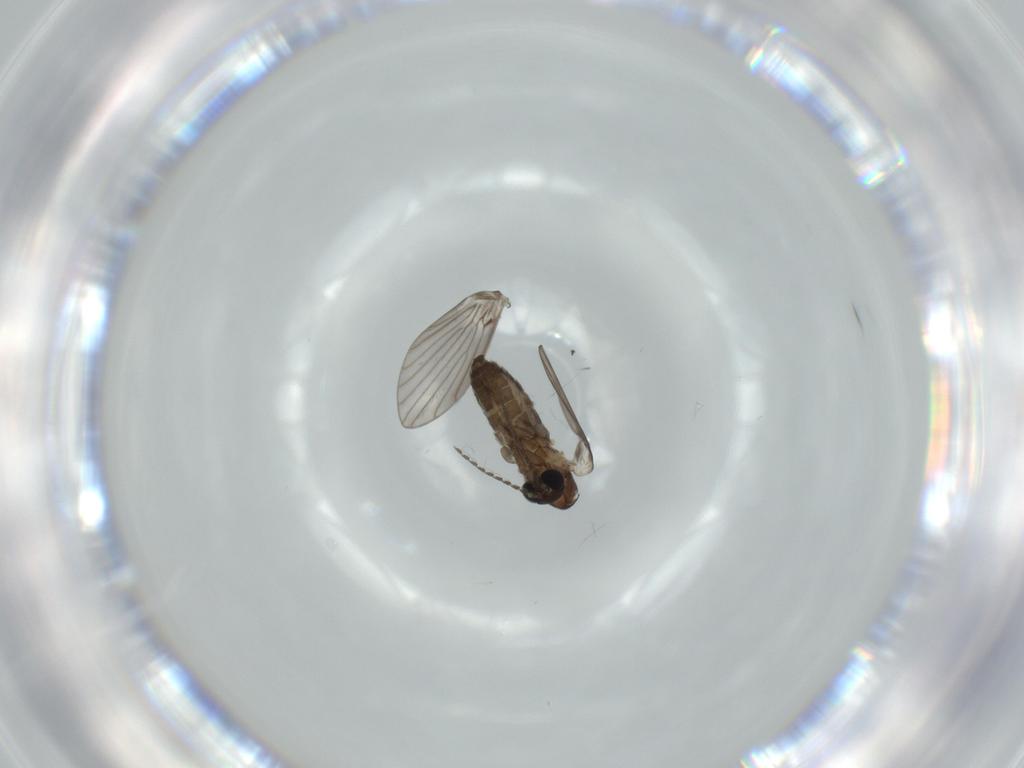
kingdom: Animalia
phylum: Arthropoda
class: Insecta
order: Diptera
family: Psychodidae
